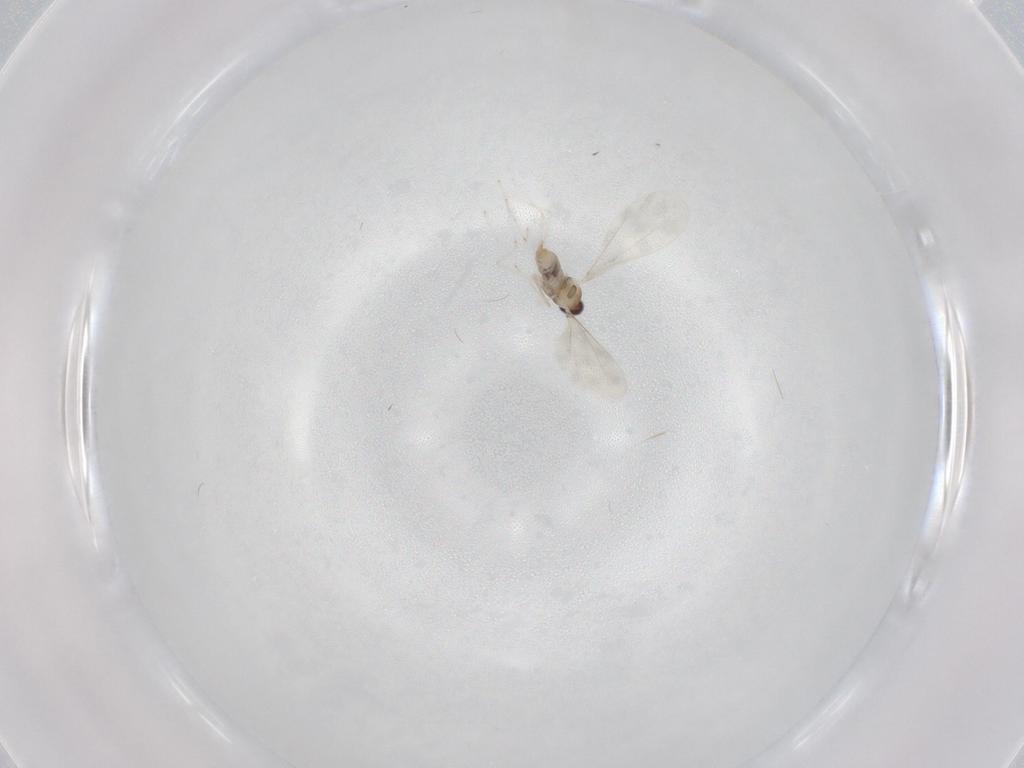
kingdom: Animalia
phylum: Arthropoda
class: Insecta
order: Diptera
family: Cecidomyiidae
